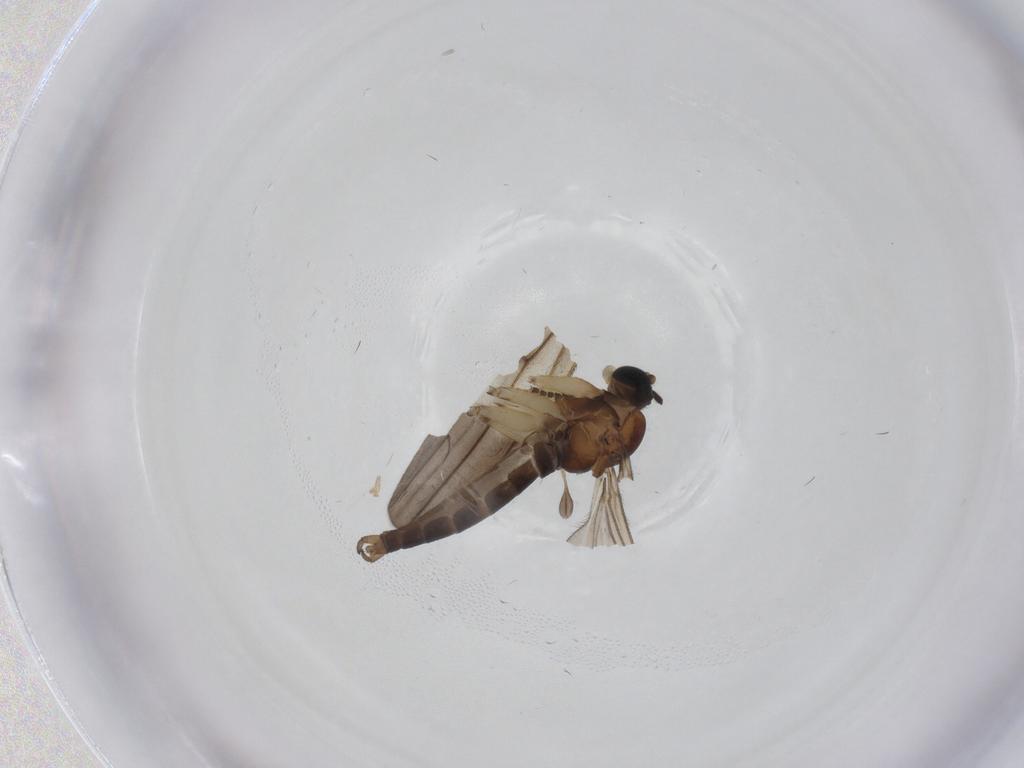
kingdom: Animalia
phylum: Arthropoda
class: Insecta
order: Diptera
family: Sciaridae
